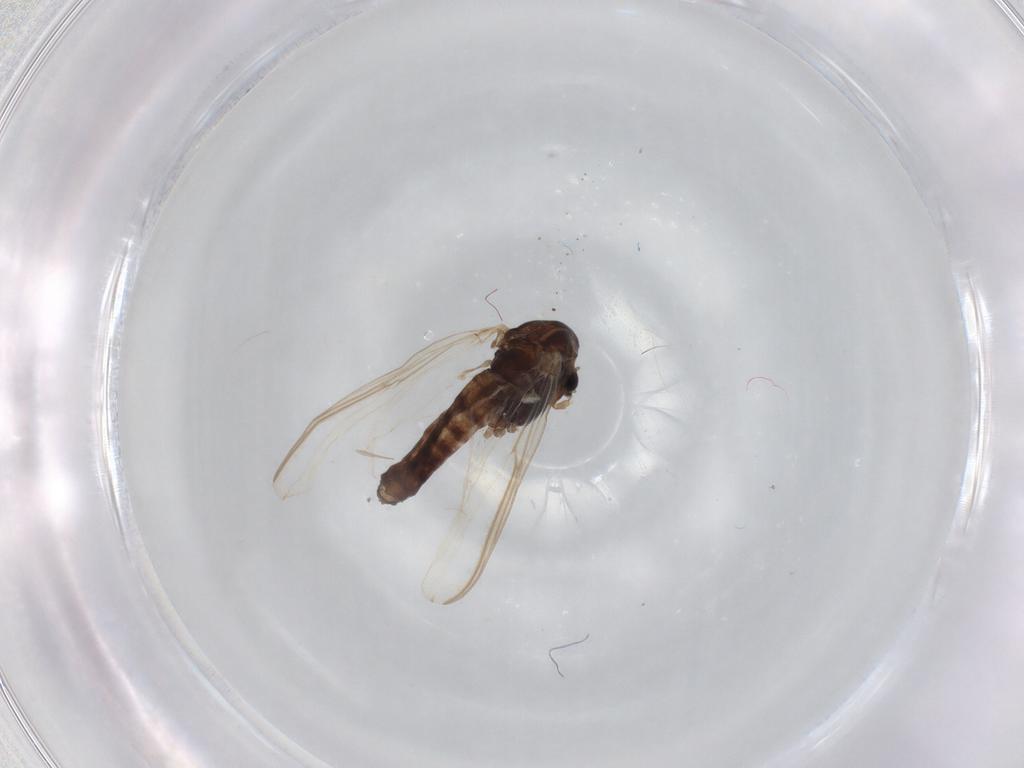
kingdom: Animalia
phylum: Arthropoda
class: Insecta
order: Diptera
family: Chironomidae
